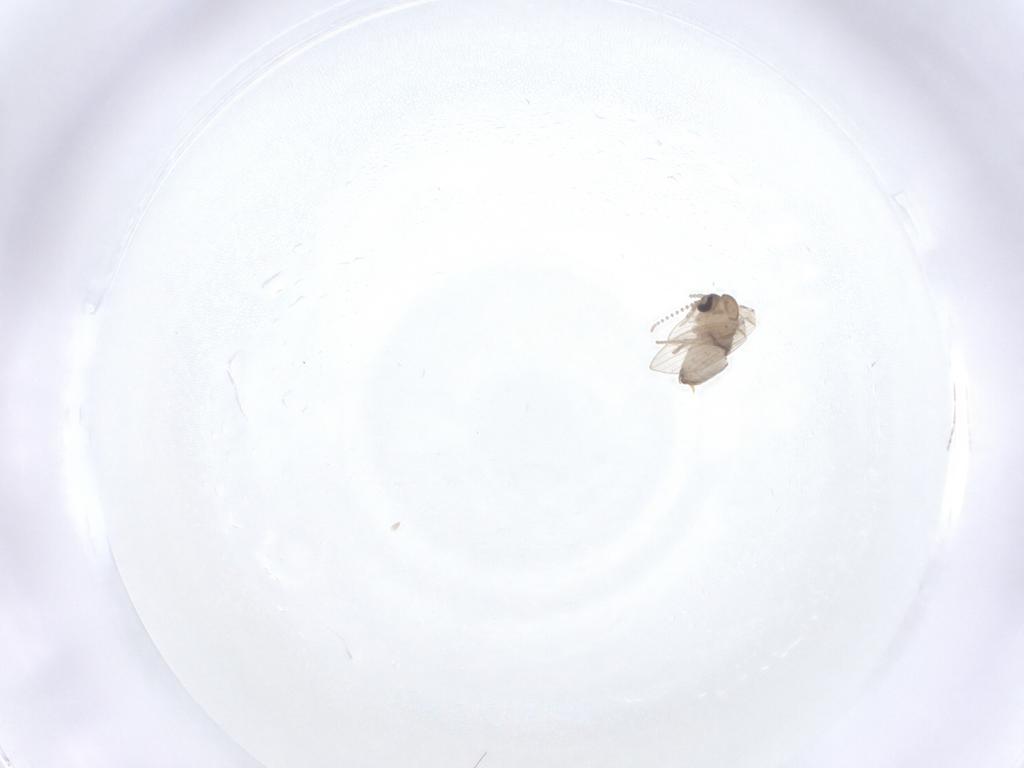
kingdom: Animalia
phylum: Arthropoda
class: Insecta
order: Diptera
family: Psychodidae
